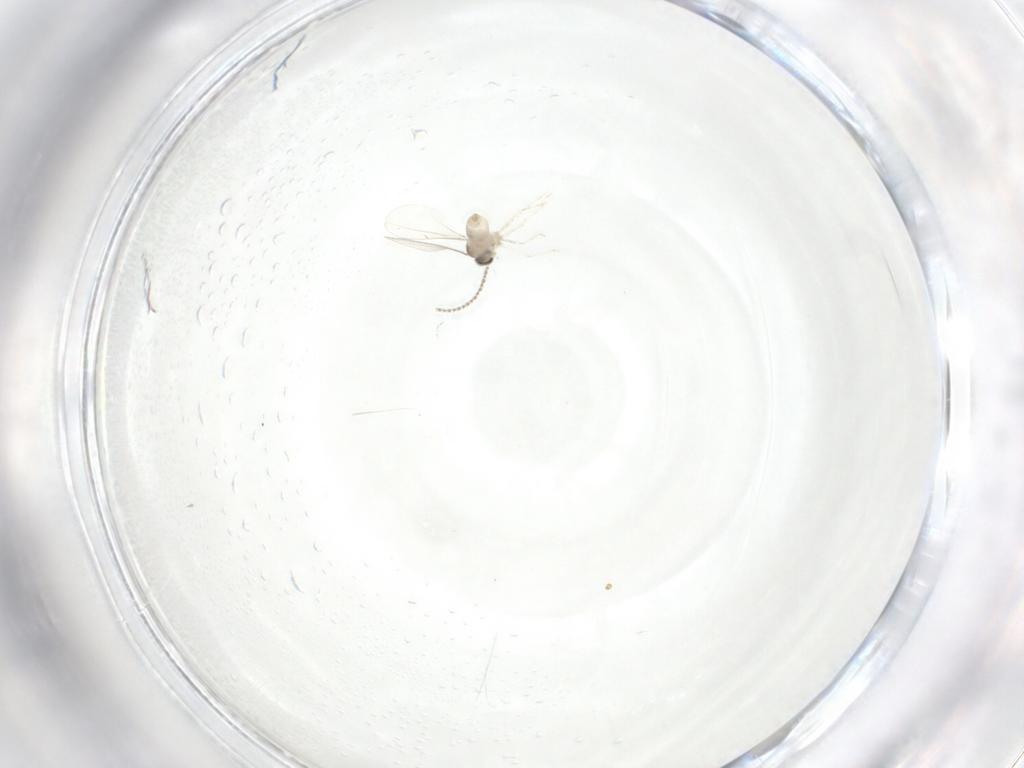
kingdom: Animalia
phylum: Arthropoda
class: Insecta
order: Diptera
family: Cecidomyiidae
